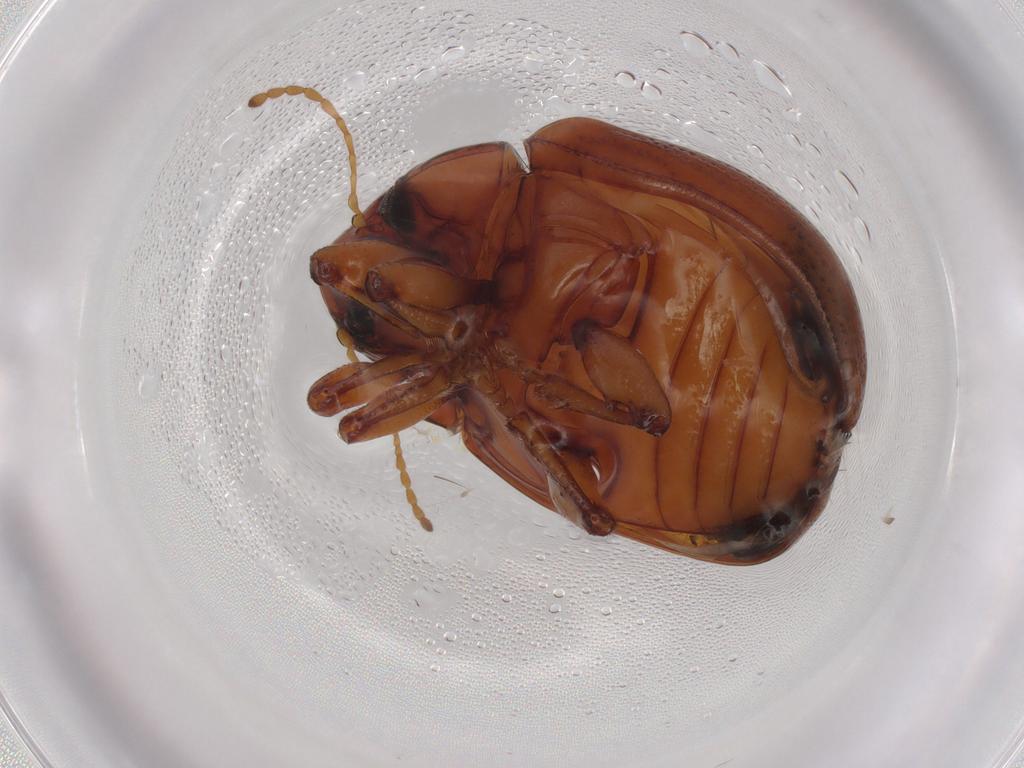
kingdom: Animalia
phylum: Arthropoda
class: Insecta
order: Coleoptera
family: Chrysomelidae
